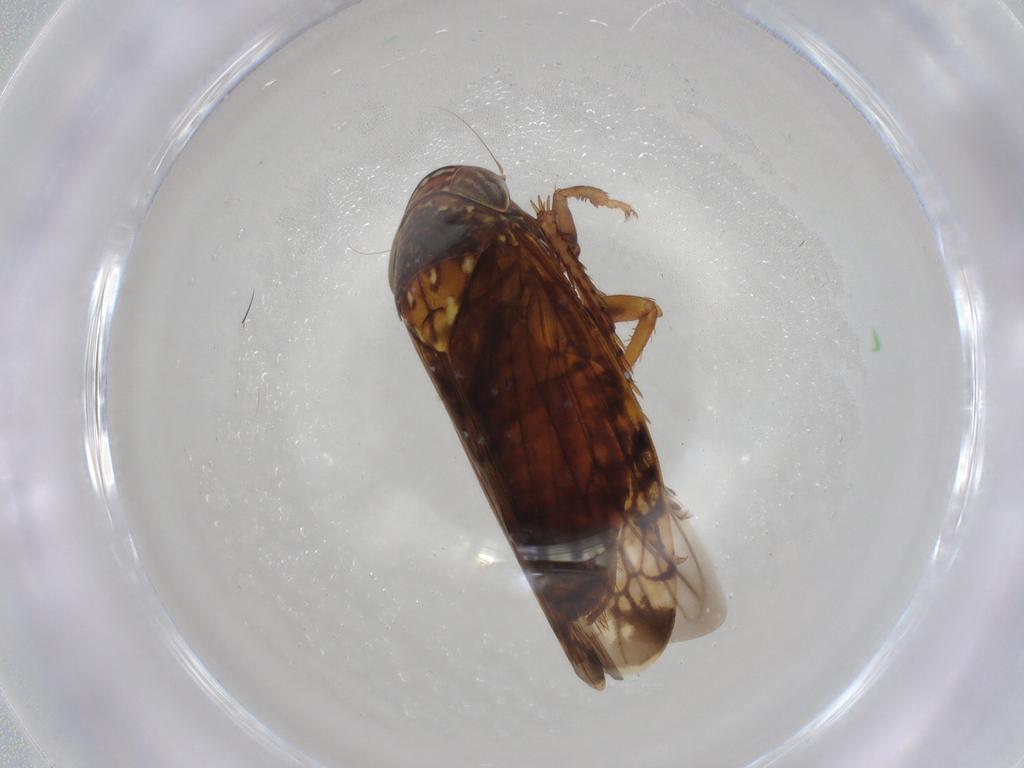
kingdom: Animalia
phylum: Arthropoda
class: Insecta
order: Hemiptera
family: Cicadellidae
